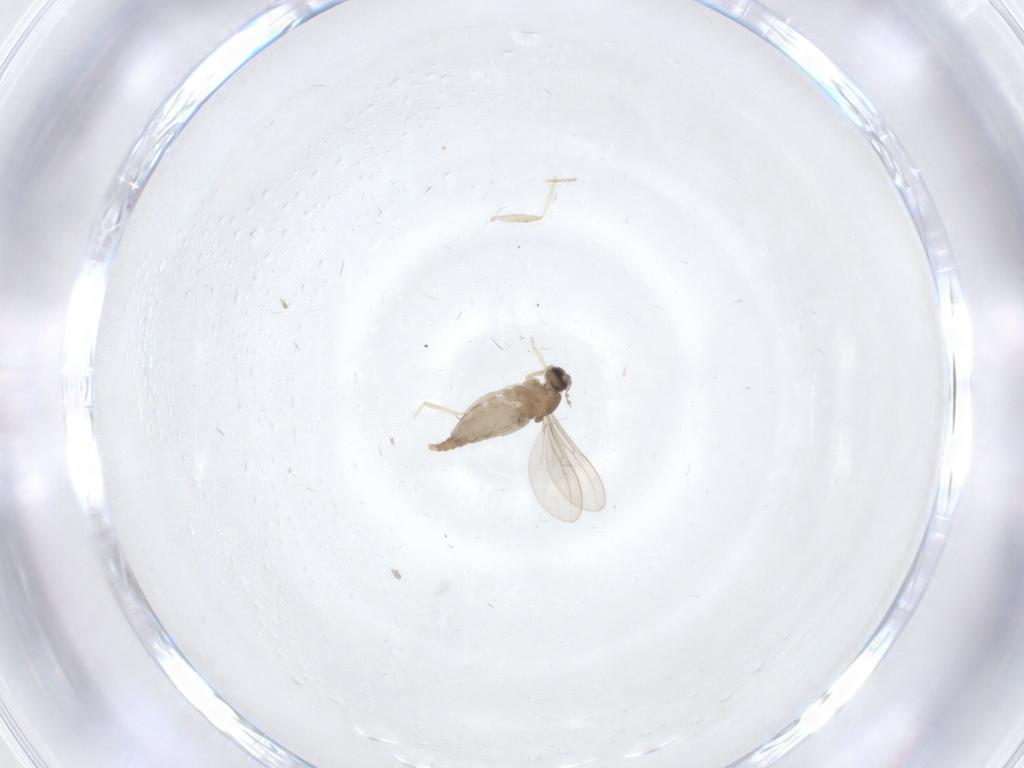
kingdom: Animalia
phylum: Arthropoda
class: Insecta
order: Diptera
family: Cecidomyiidae
